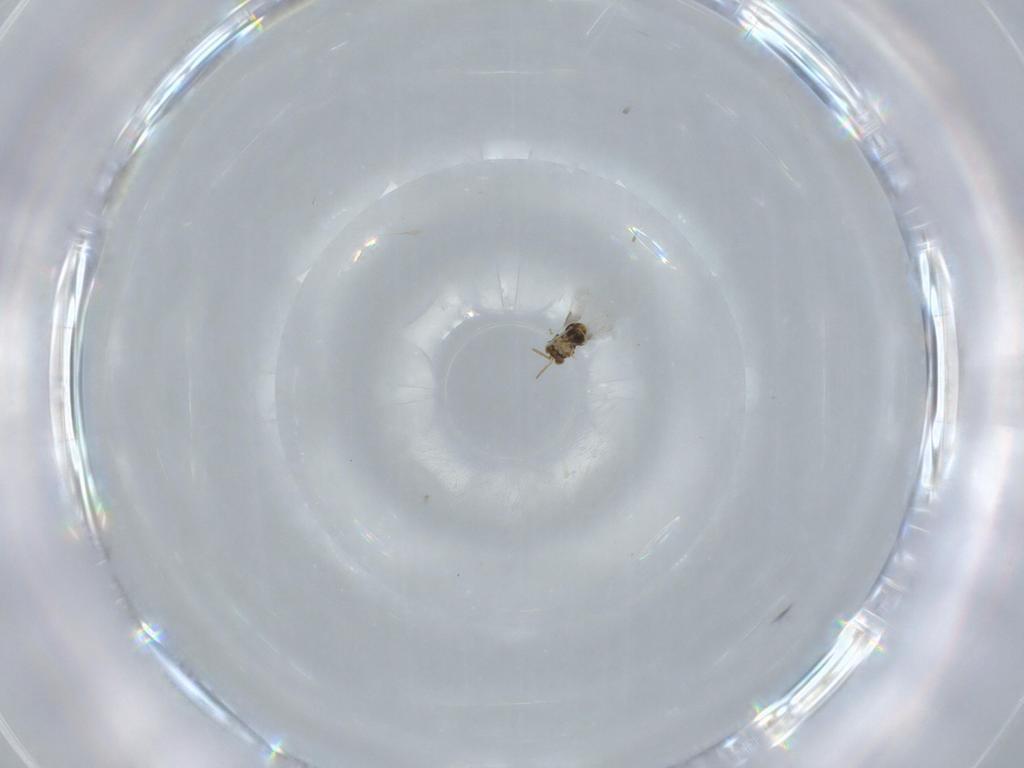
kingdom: Animalia
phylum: Arthropoda
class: Insecta
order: Hymenoptera
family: Aphelinidae
